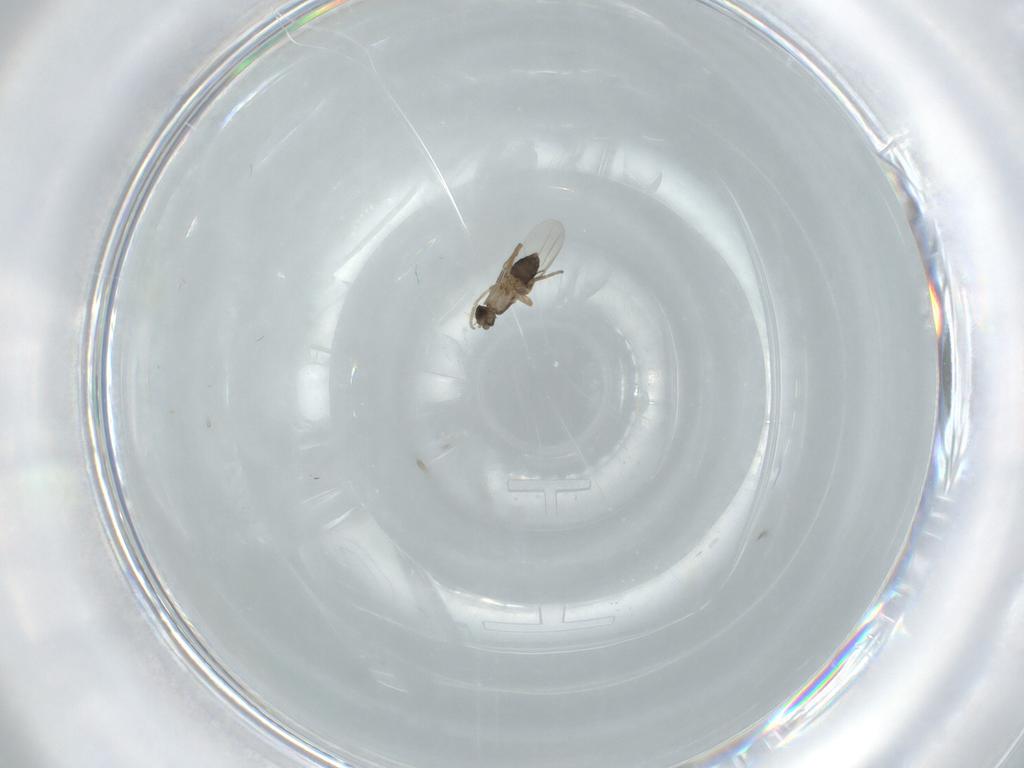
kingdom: Animalia
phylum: Arthropoda
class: Insecta
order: Diptera
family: Phoridae
